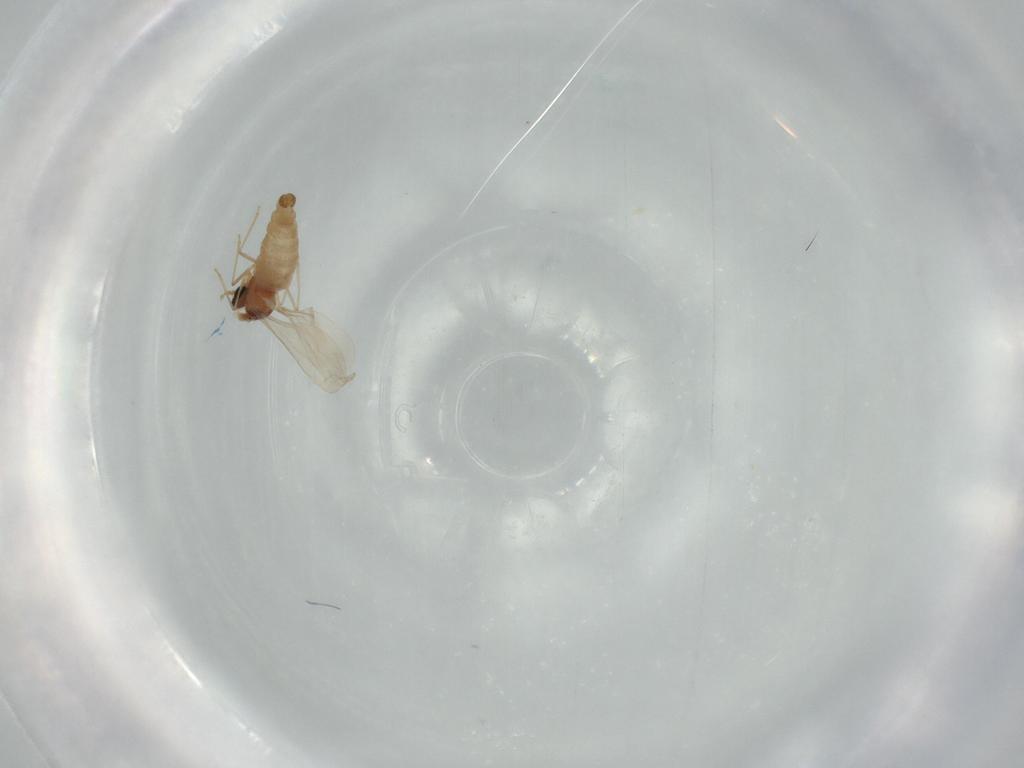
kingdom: Animalia
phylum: Arthropoda
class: Insecta
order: Diptera
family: Cecidomyiidae
